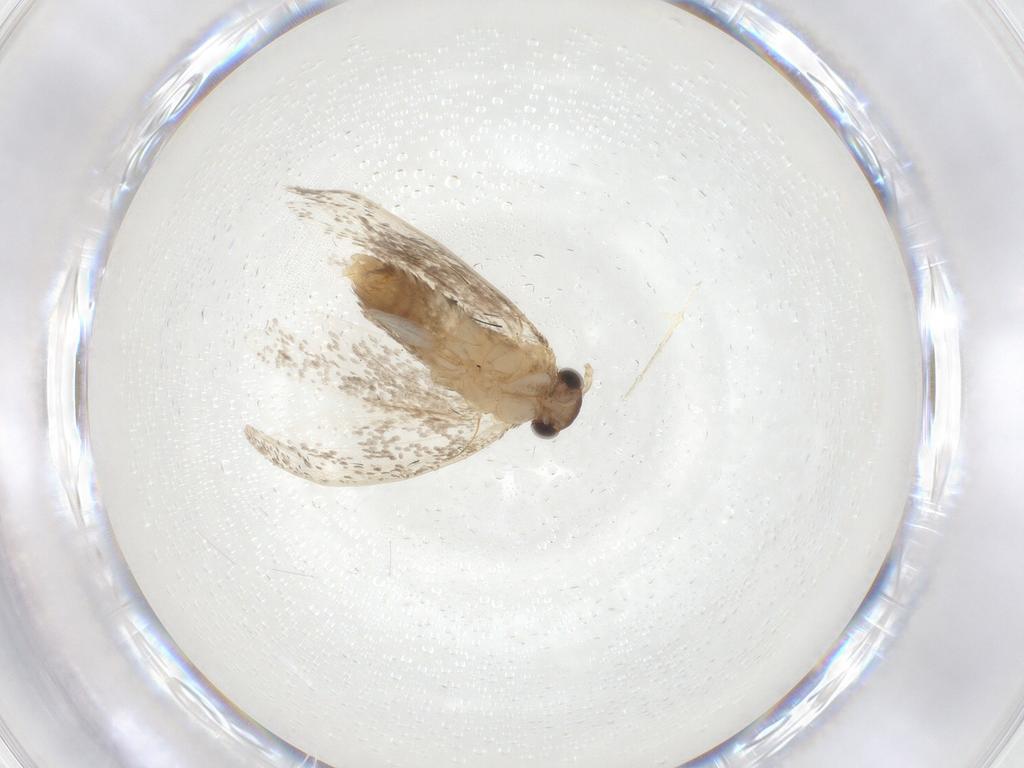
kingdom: Animalia
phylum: Arthropoda
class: Insecta
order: Lepidoptera
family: Dryadaulidae
